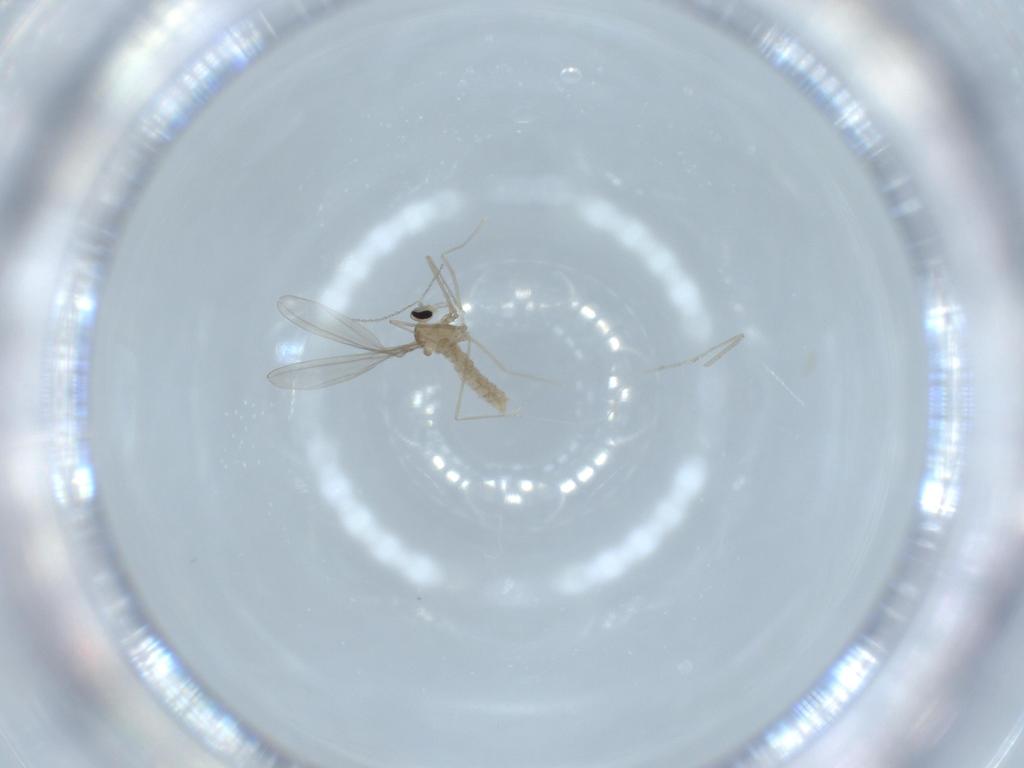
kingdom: Animalia
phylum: Arthropoda
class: Insecta
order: Diptera
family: Cecidomyiidae
